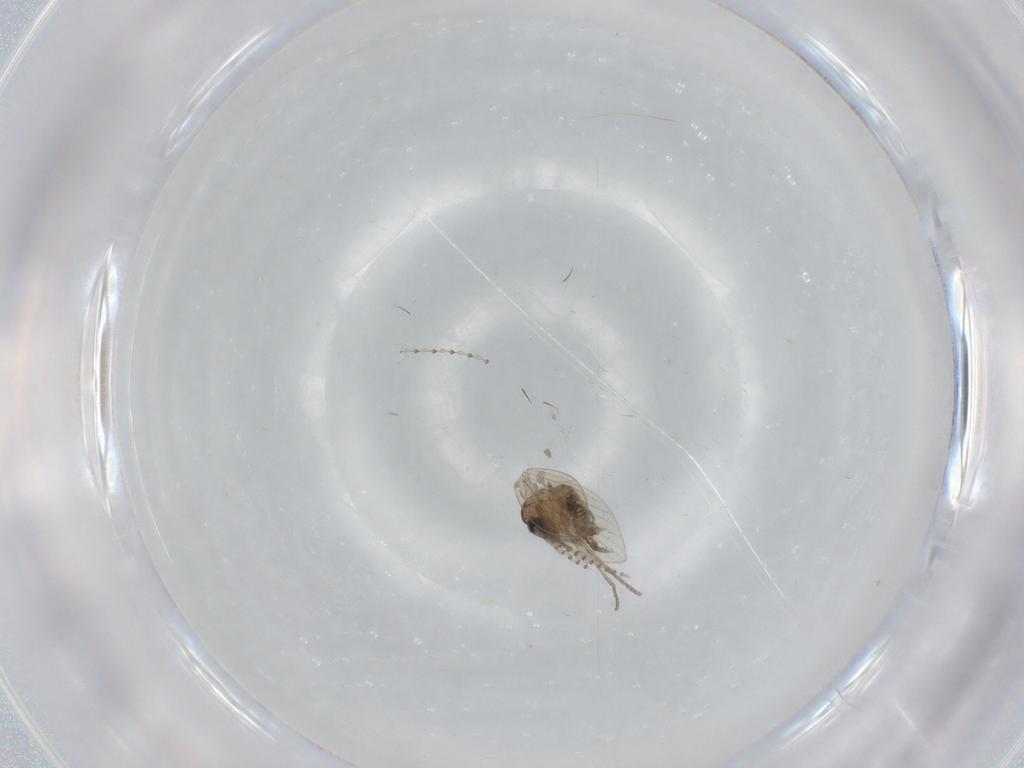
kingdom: Animalia
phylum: Arthropoda
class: Insecta
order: Diptera
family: Psychodidae
